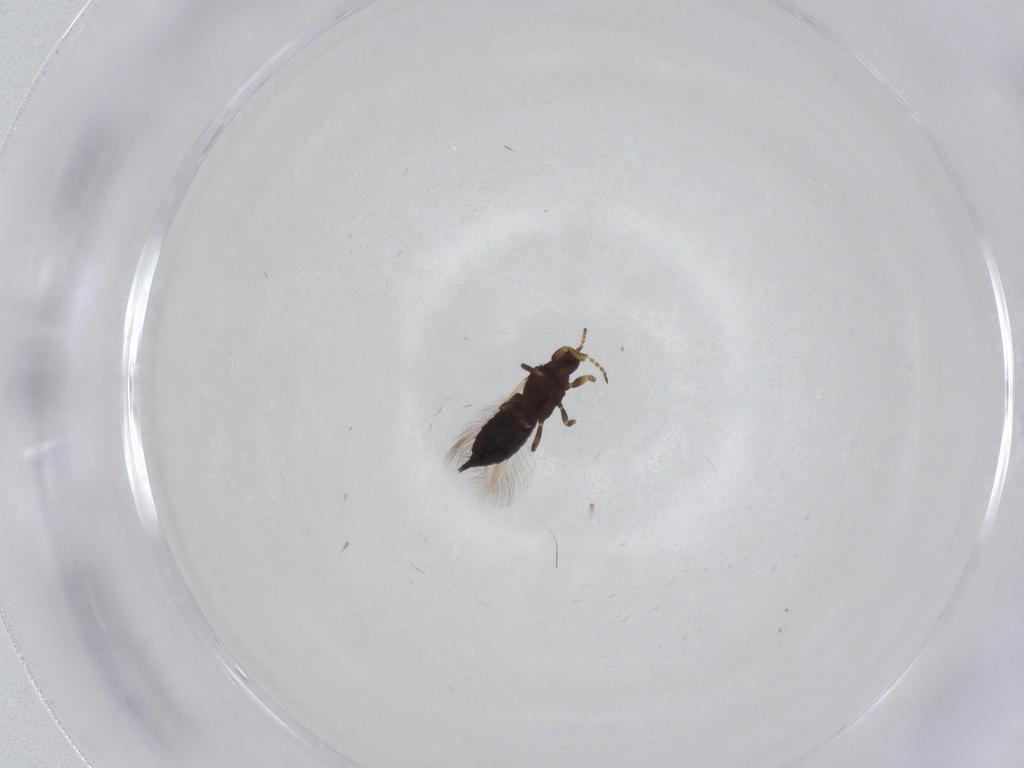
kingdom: Animalia
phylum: Arthropoda
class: Insecta
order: Thysanoptera
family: Phlaeothripidae
